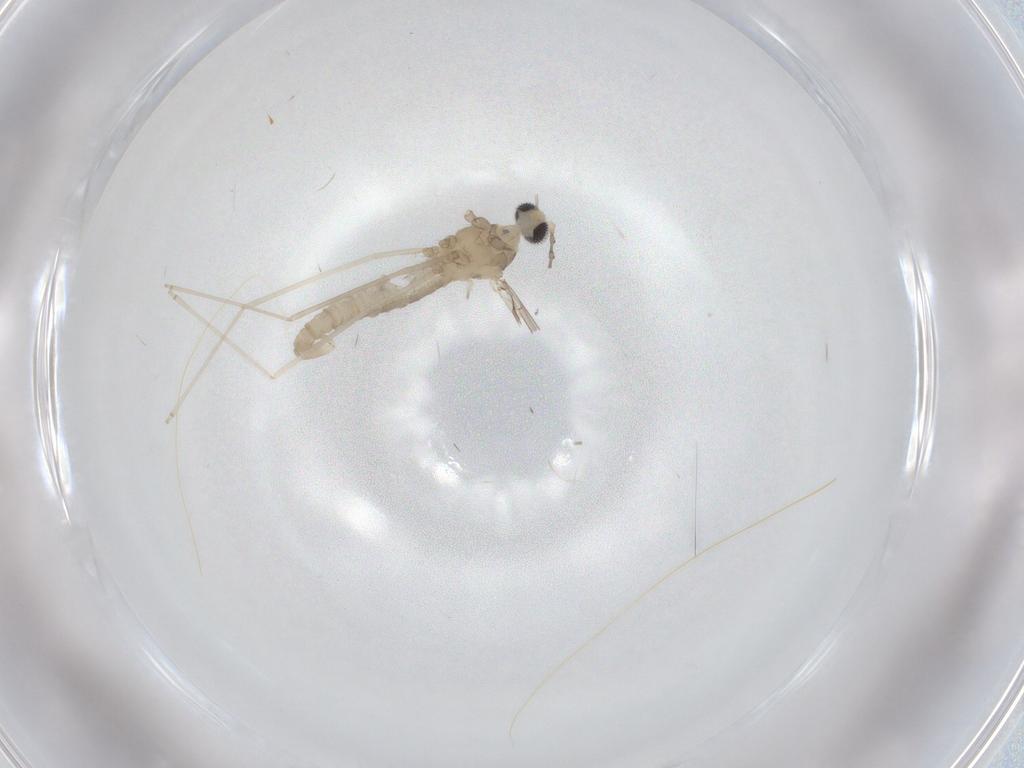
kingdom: Animalia
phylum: Arthropoda
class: Insecta
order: Diptera
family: Cecidomyiidae
